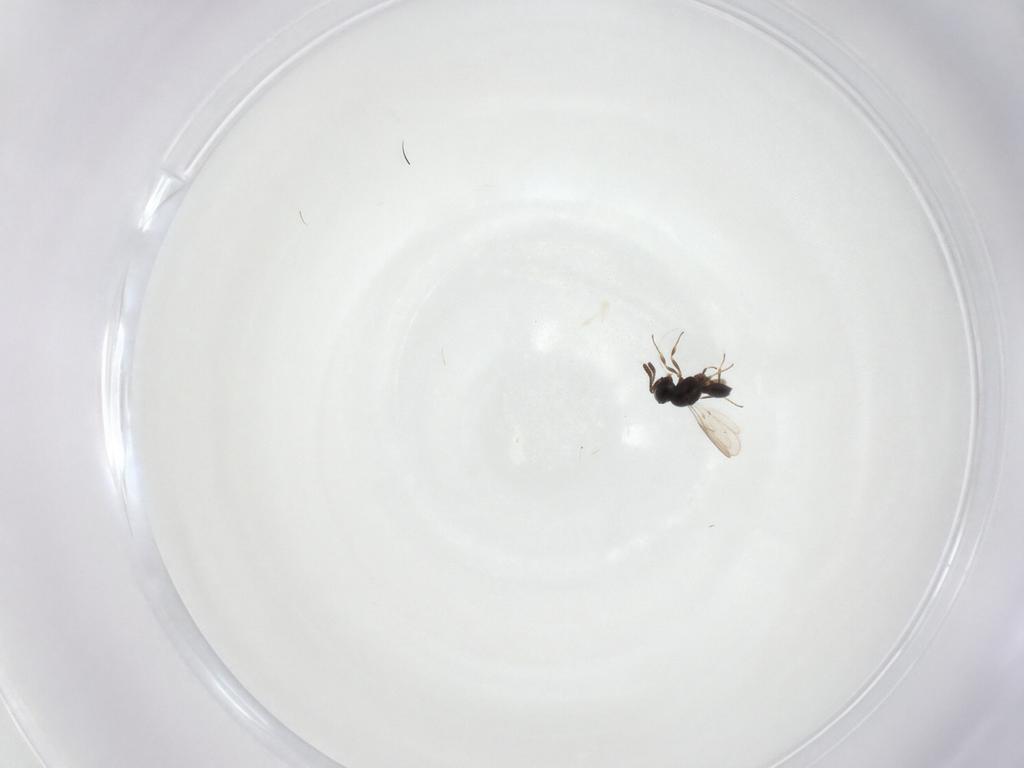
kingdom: Animalia
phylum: Arthropoda
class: Insecta
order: Hymenoptera
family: Scelionidae
